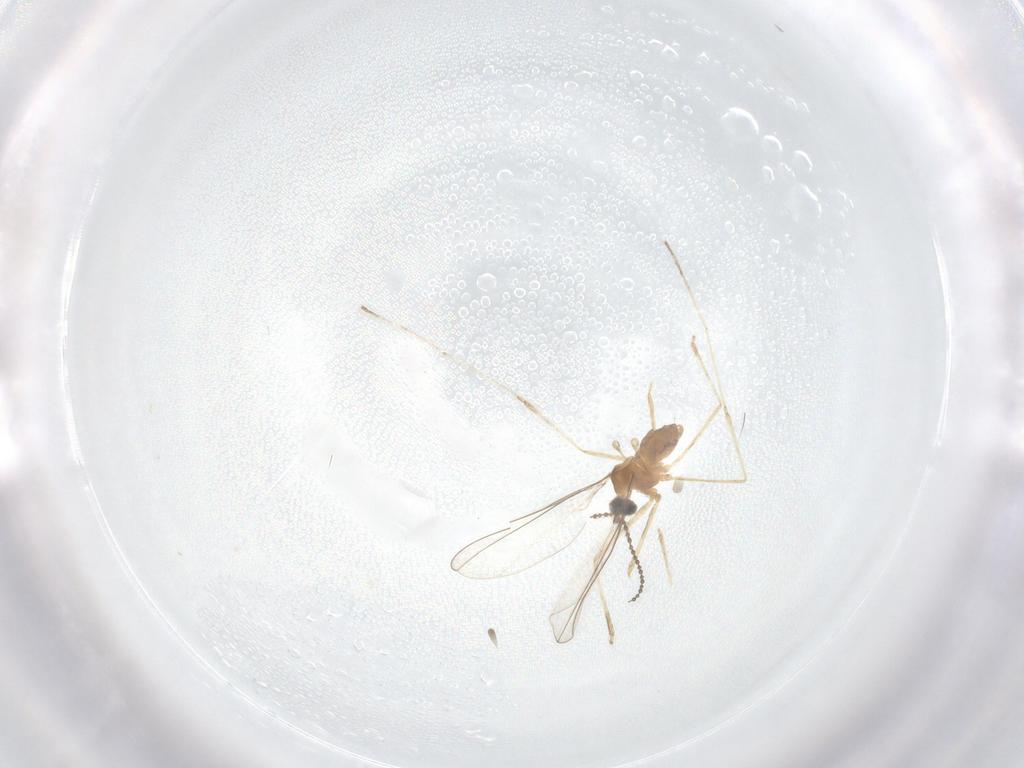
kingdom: Animalia
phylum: Arthropoda
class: Insecta
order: Diptera
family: Cecidomyiidae
